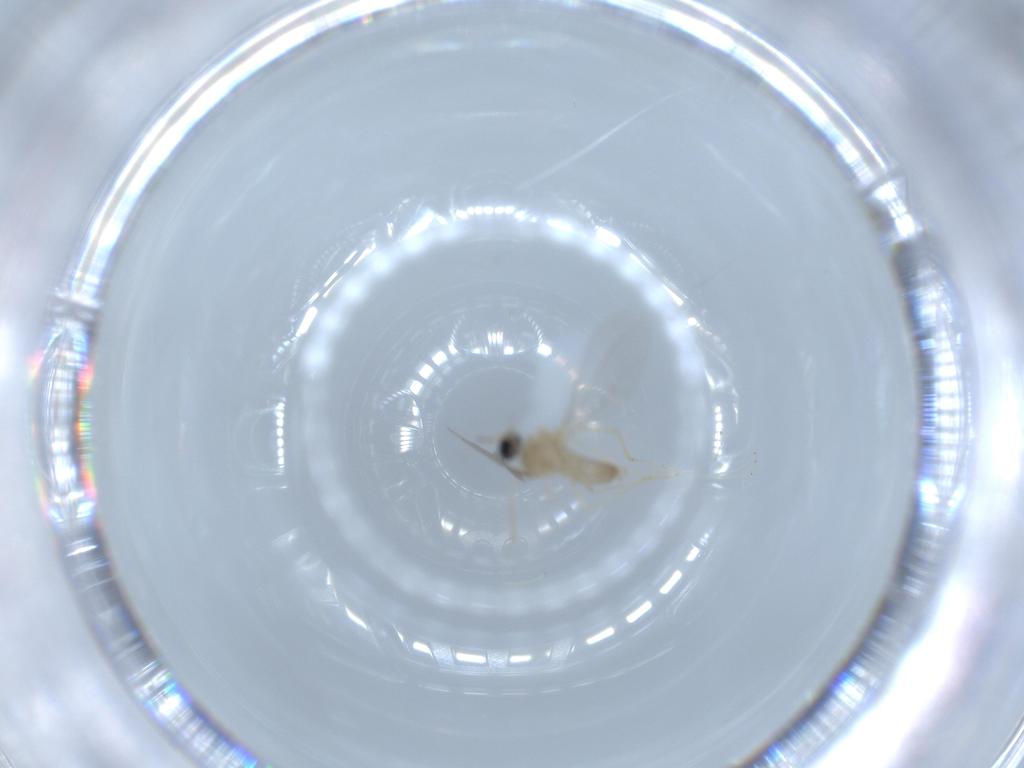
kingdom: Animalia
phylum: Arthropoda
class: Insecta
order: Diptera
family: Cecidomyiidae
